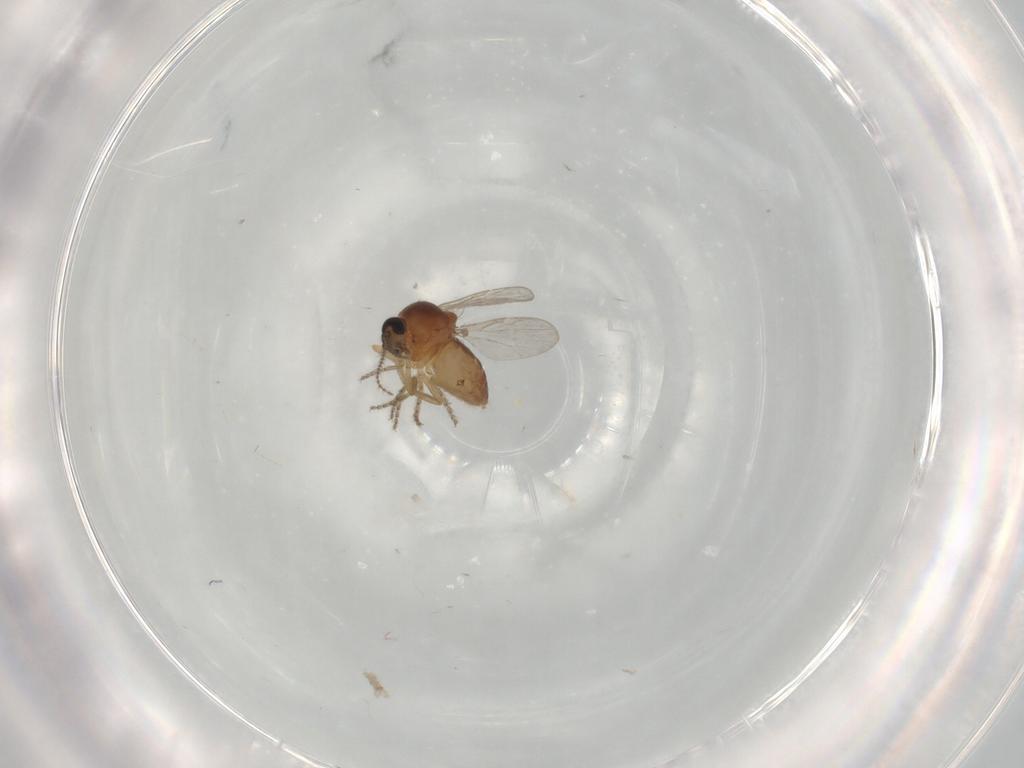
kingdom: Animalia
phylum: Arthropoda
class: Insecta
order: Diptera
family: Ceratopogonidae
